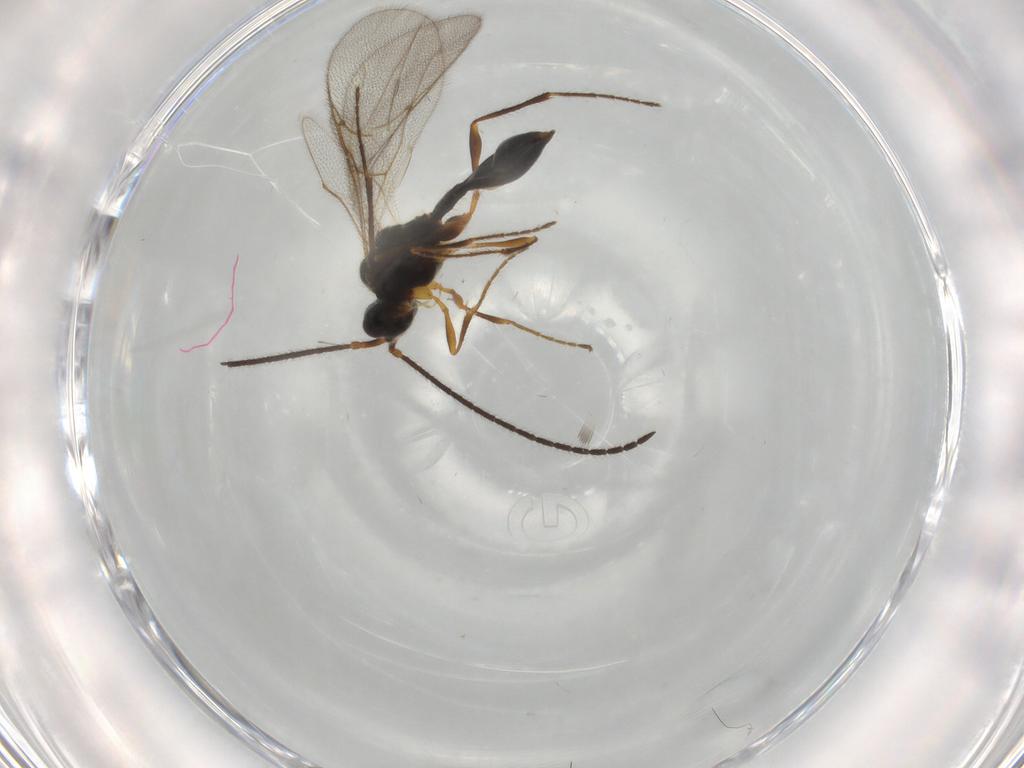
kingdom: Animalia
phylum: Arthropoda
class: Insecta
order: Hymenoptera
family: Diapriidae
